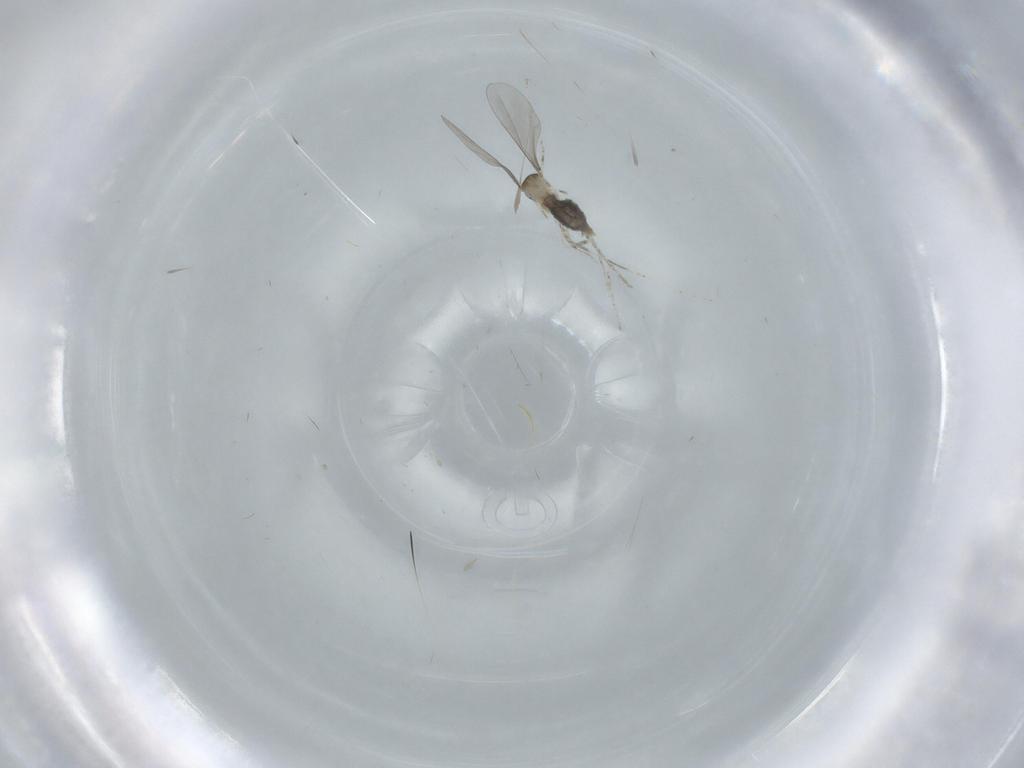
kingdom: Animalia
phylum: Arthropoda
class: Insecta
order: Diptera
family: Cecidomyiidae
